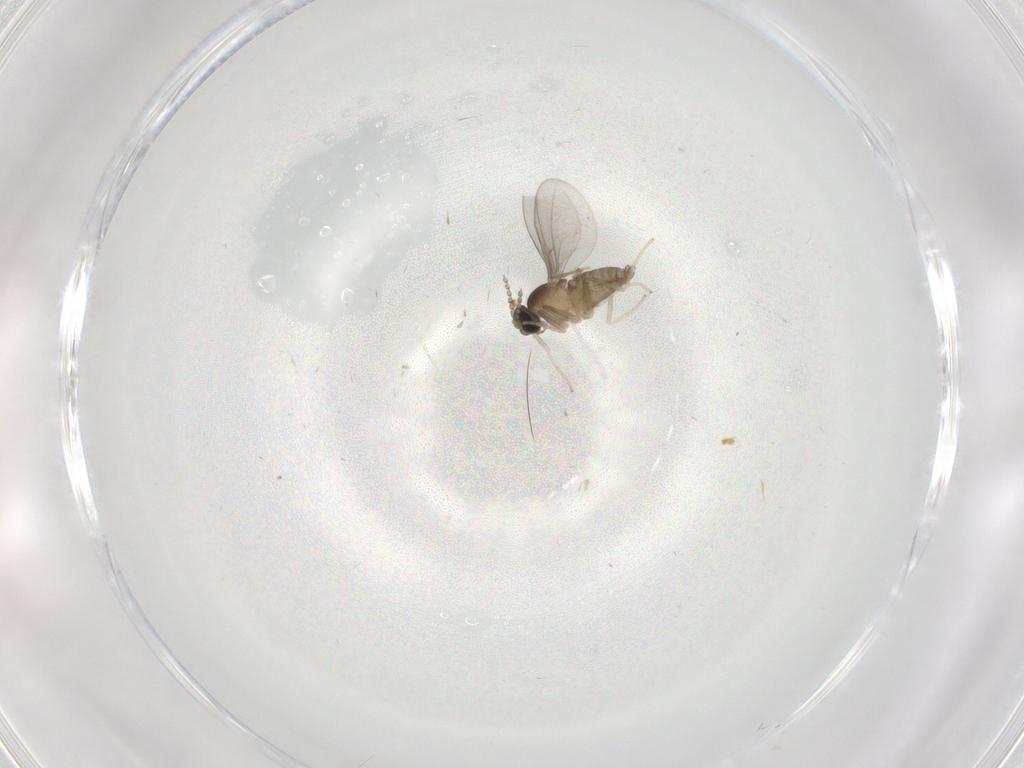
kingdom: Animalia
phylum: Arthropoda
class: Insecta
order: Diptera
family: Cecidomyiidae
